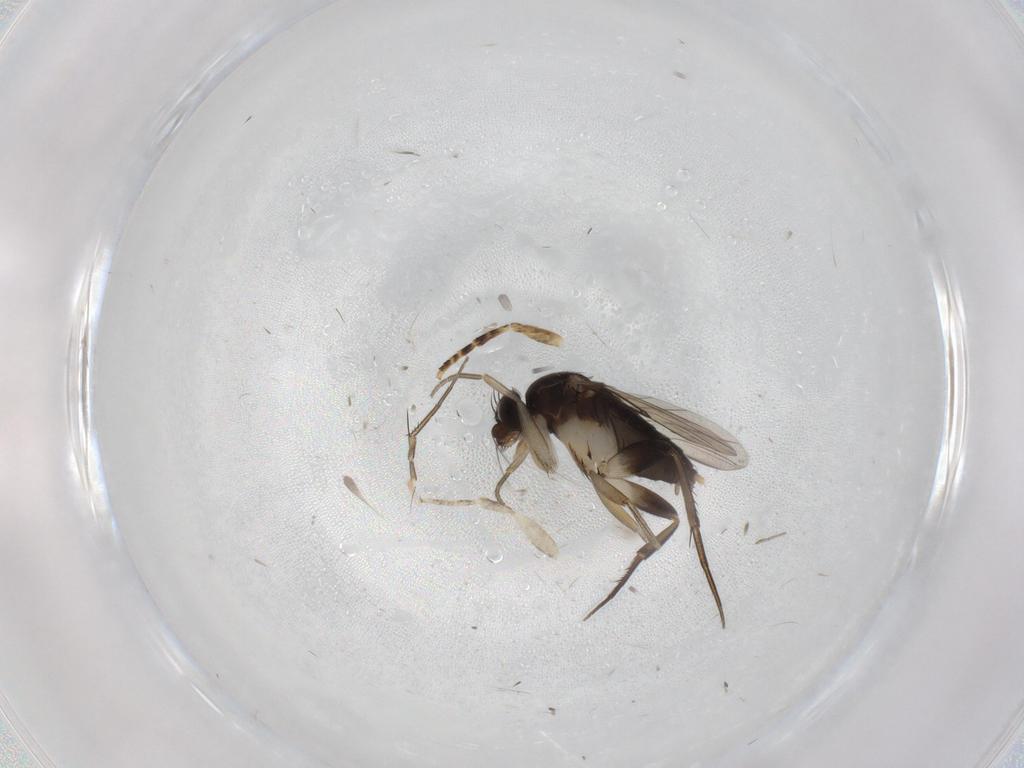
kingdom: Animalia
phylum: Arthropoda
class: Insecta
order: Diptera
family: Phoridae
